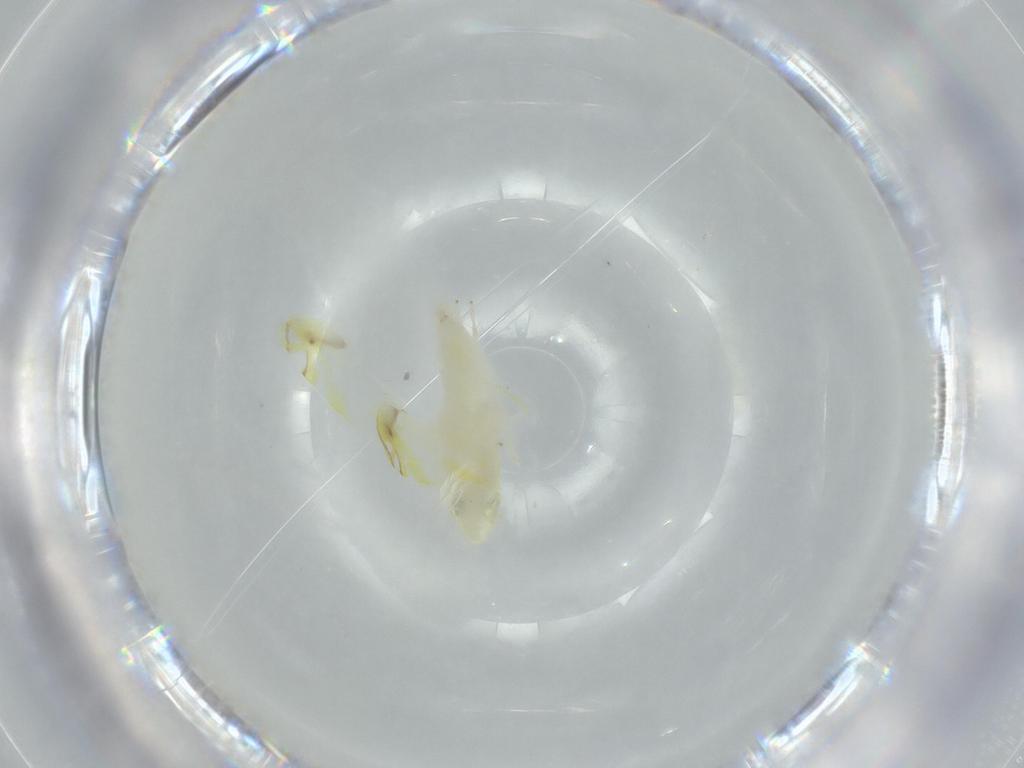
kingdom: Animalia
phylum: Arthropoda
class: Insecta
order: Hemiptera
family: Cicadellidae
